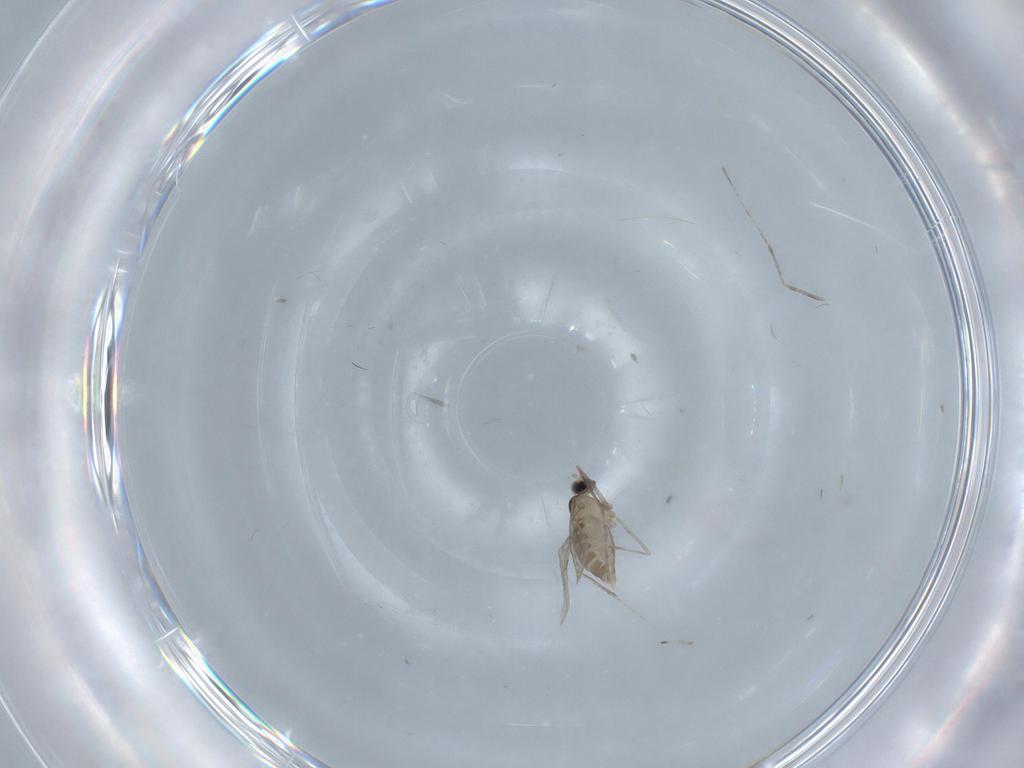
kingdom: Animalia
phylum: Arthropoda
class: Insecta
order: Diptera
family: Cecidomyiidae
